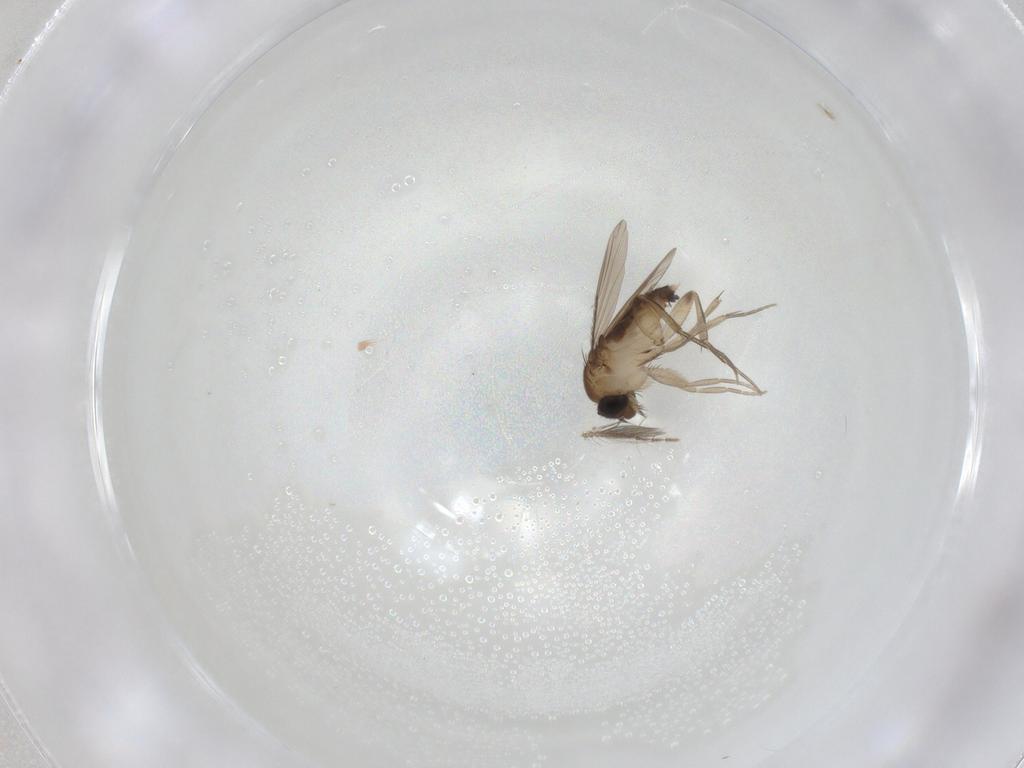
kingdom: Animalia
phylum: Arthropoda
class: Insecta
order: Diptera
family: Phoridae
